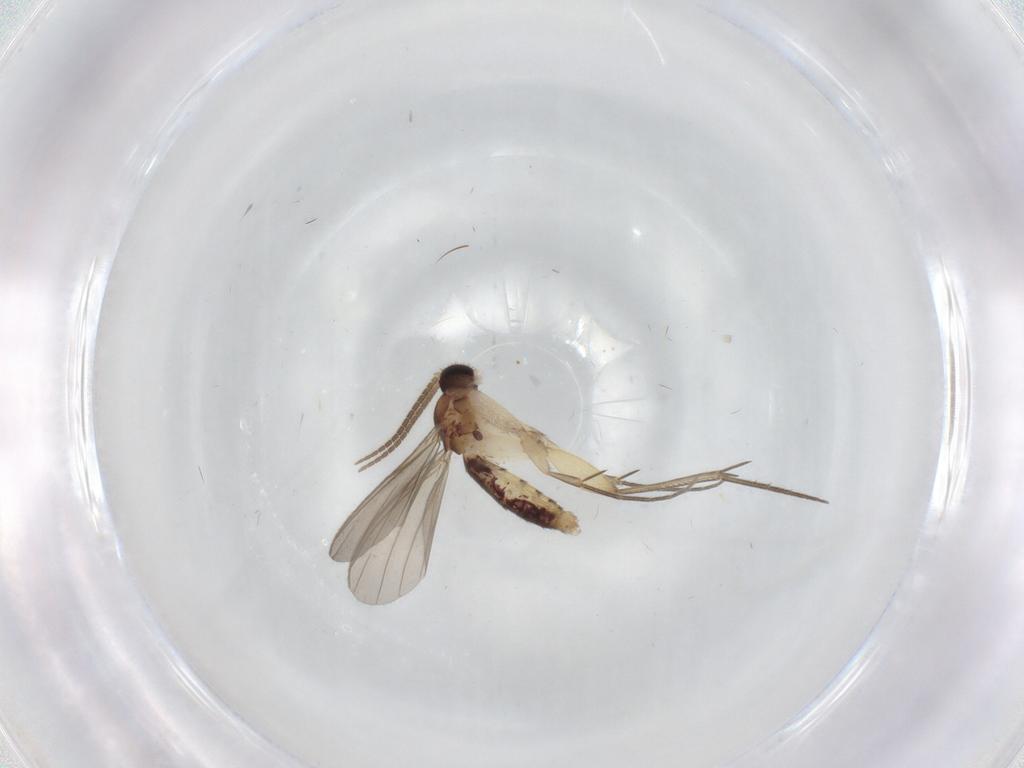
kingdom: Animalia
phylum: Arthropoda
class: Insecta
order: Diptera
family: Mycetophilidae
